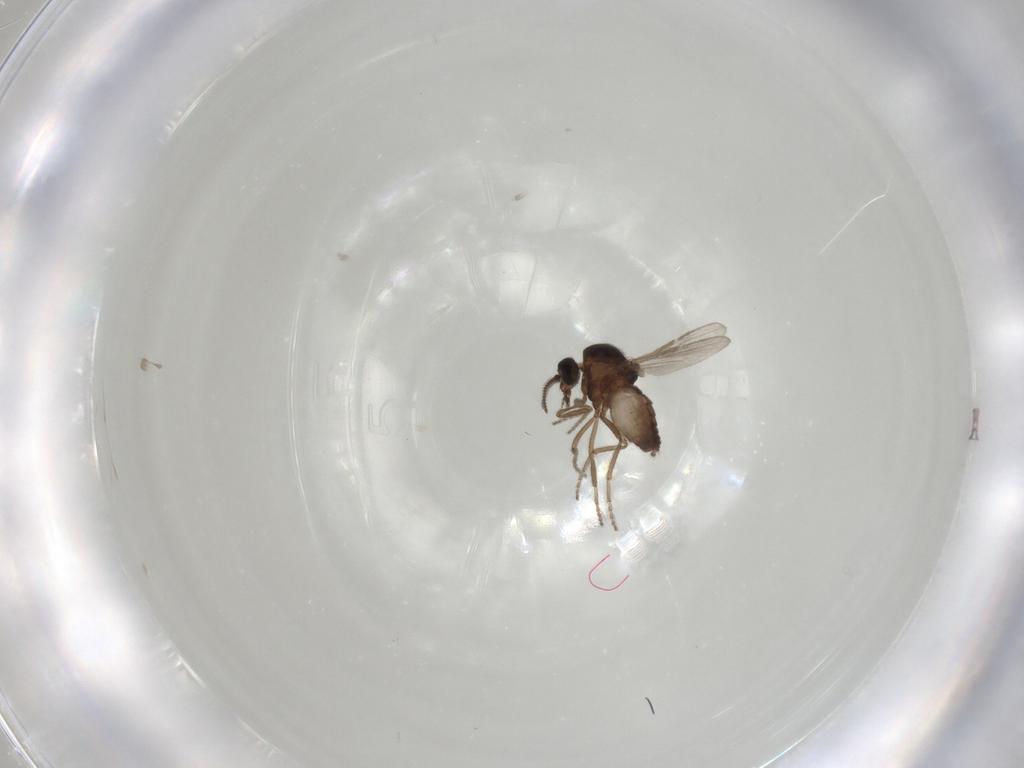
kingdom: Animalia
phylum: Arthropoda
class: Insecta
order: Diptera
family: Ceratopogonidae
